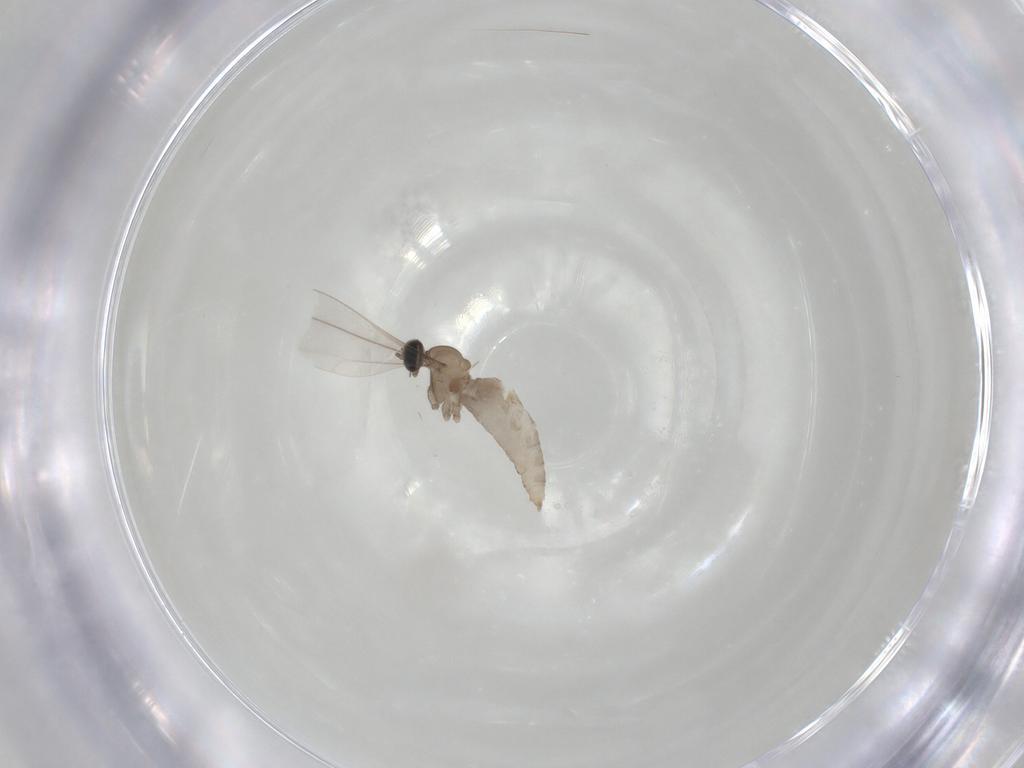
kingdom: Animalia
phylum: Arthropoda
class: Insecta
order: Diptera
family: Cecidomyiidae
